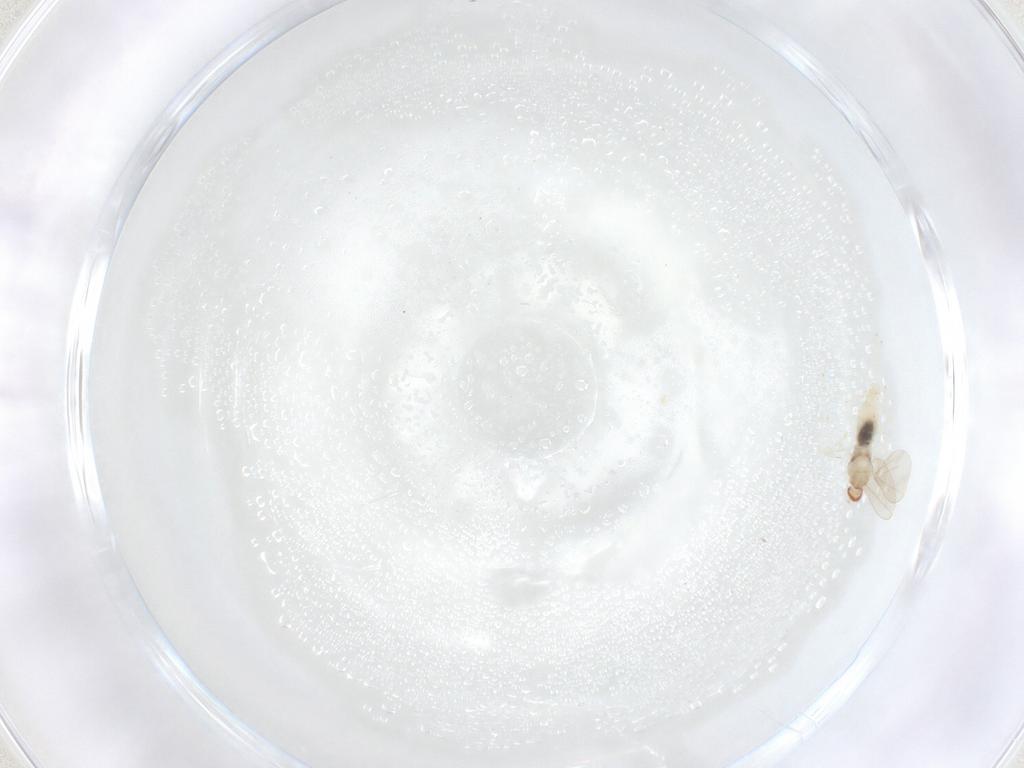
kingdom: Animalia
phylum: Arthropoda
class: Insecta
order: Diptera
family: Cecidomyiidae
